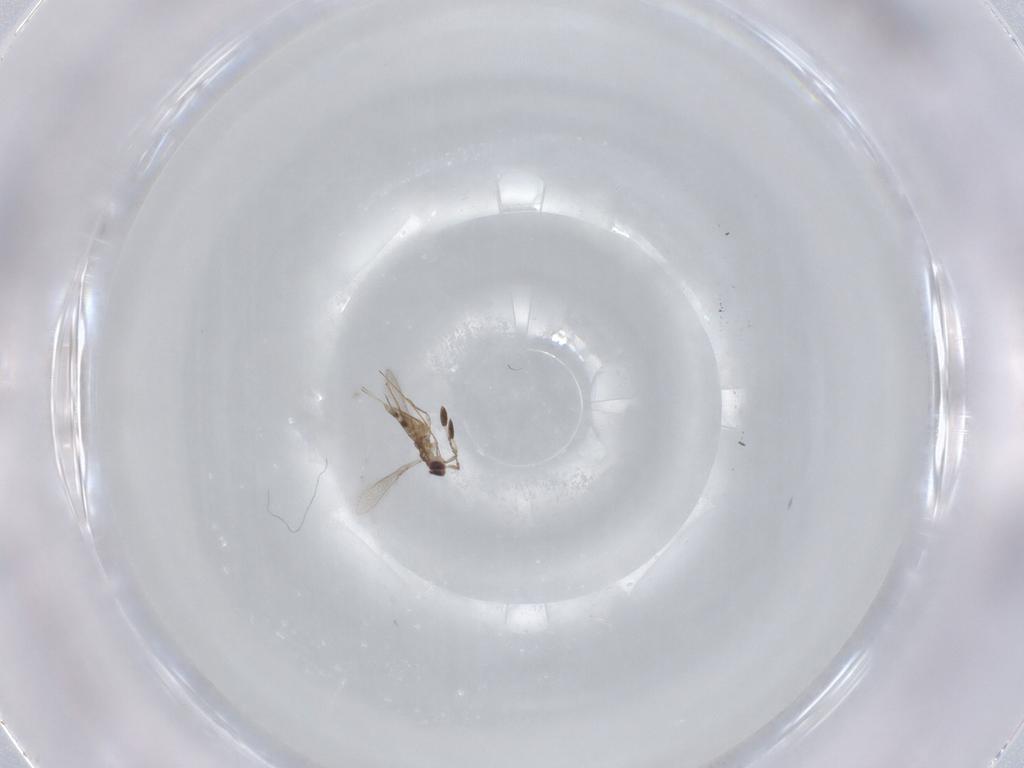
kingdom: Animalia
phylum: Arthropoda
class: Insecta
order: Hymenoptera
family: Mymaridae
